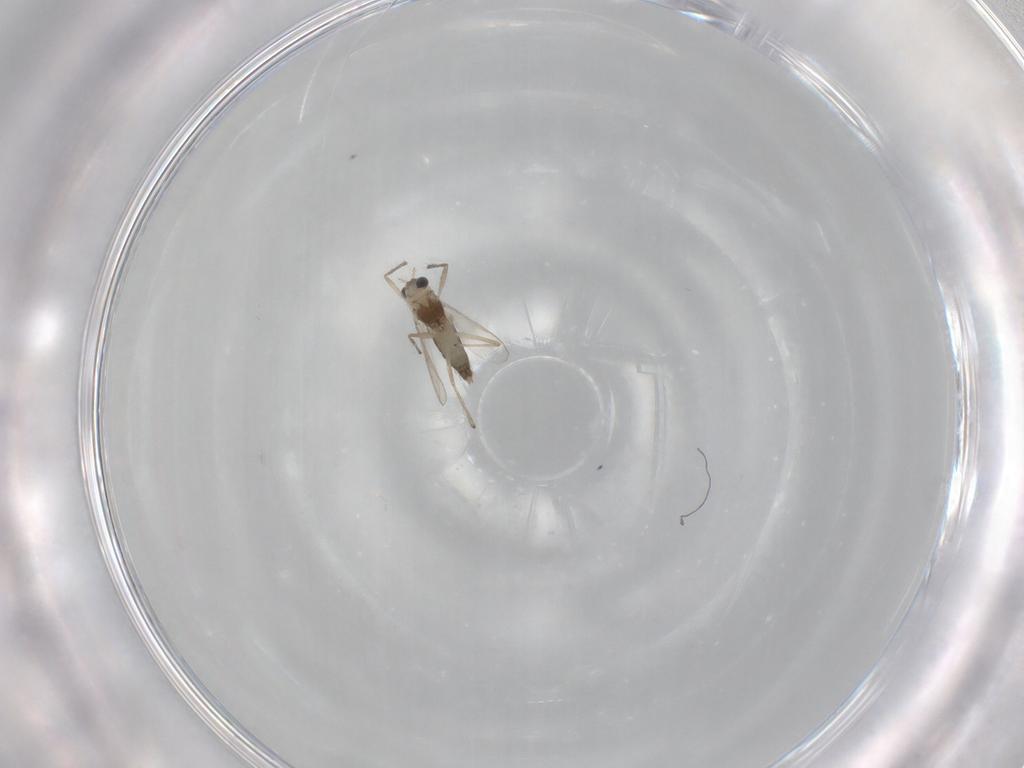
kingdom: Animalia
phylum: Arthropoda
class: Insecta
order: Diptera
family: Chironomidae
